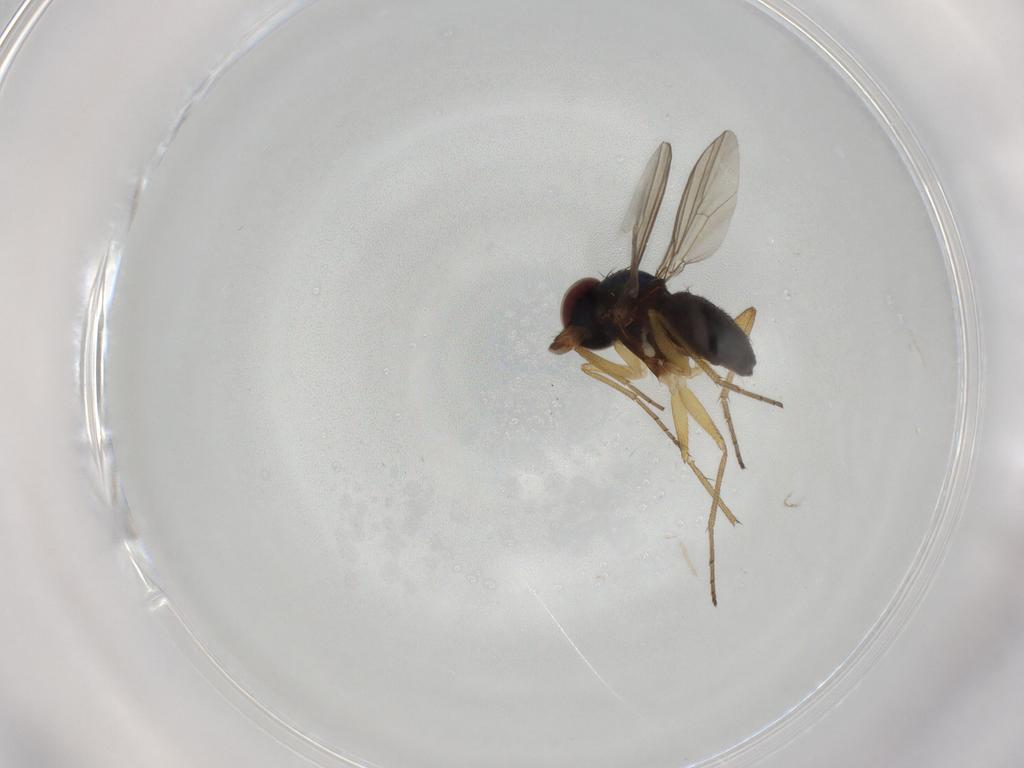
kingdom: Animalia
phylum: Arthropoda
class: Insecta
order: Diptera
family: Dolichopodidae
